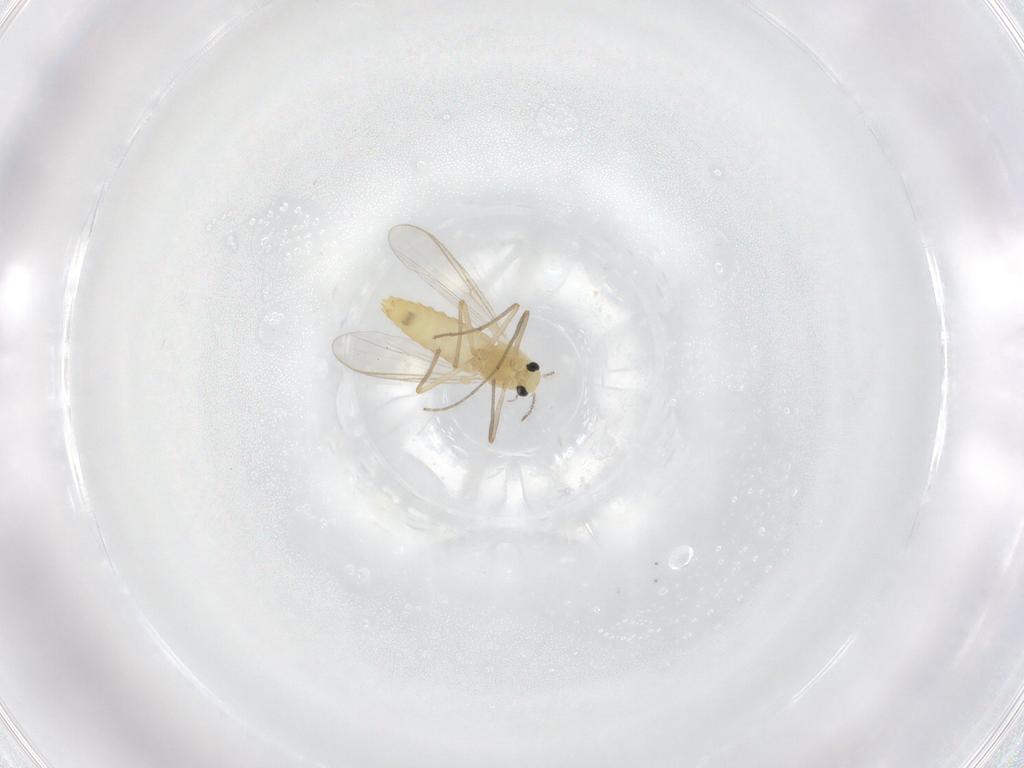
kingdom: Animalia
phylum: Arthropoda
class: Insecta
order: Diptera
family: Chironomidae
